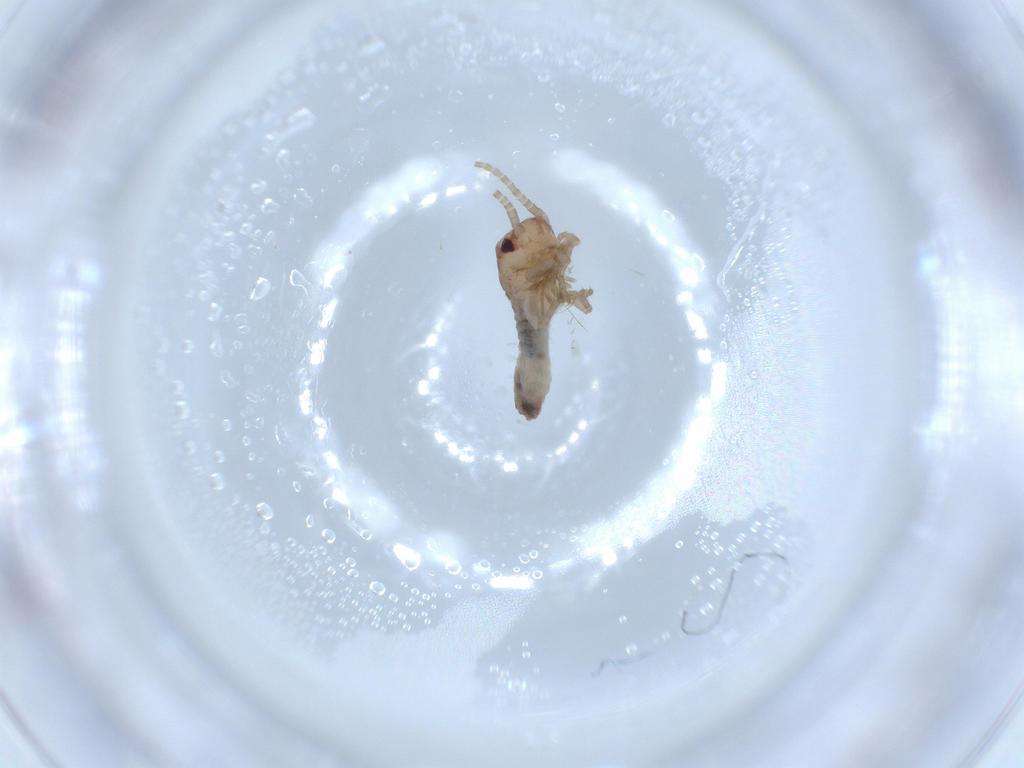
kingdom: Animalia
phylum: Arthropoda
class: Insecta
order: Orthoptera
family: Mogoplistidae
